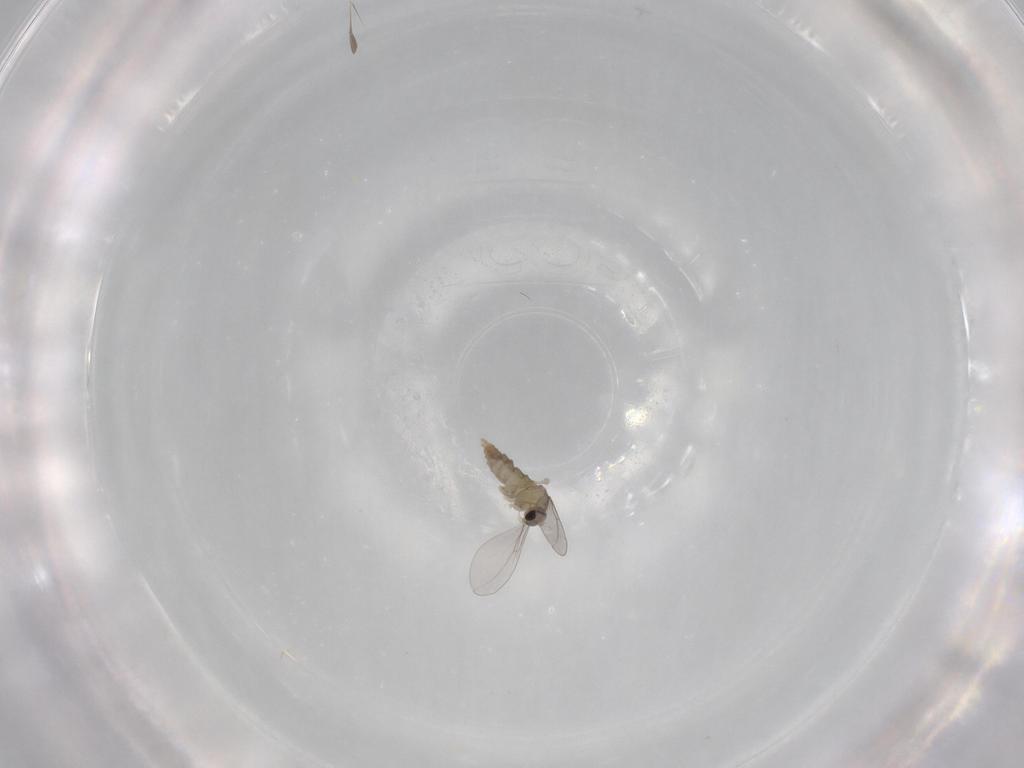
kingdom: Animalia
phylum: Arthropoda
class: Insecta
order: Diptera
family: Cecidomyiidae
